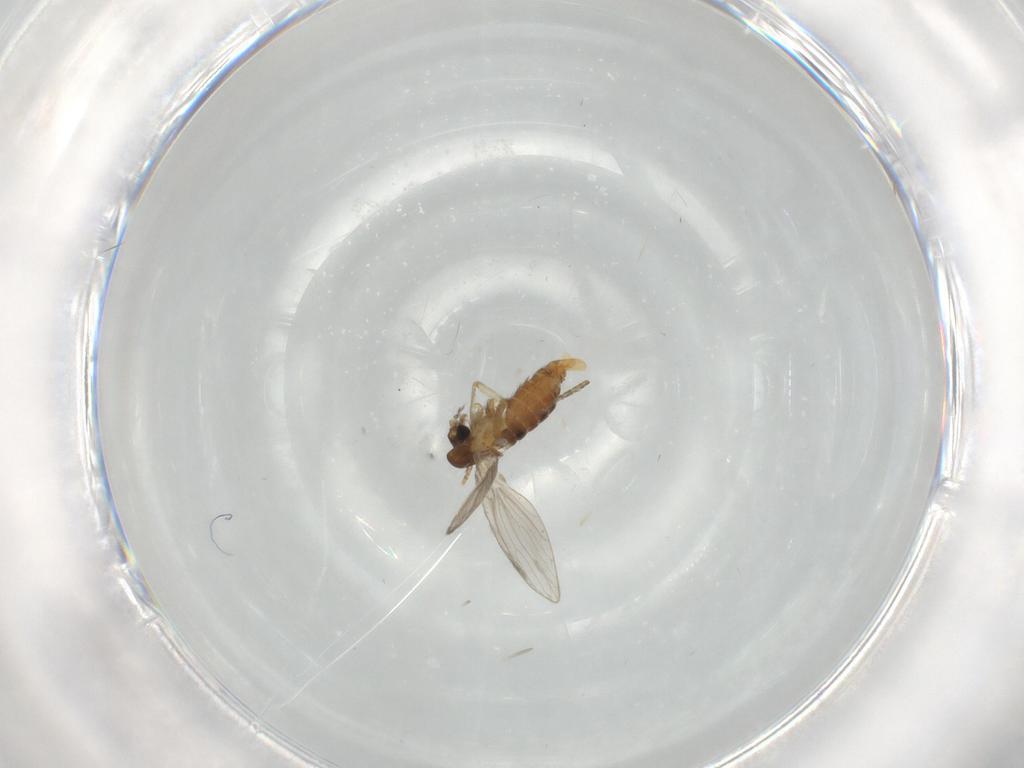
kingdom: Animalia
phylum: Arthropoda
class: Insecta
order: Diptera
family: Psychodidae
